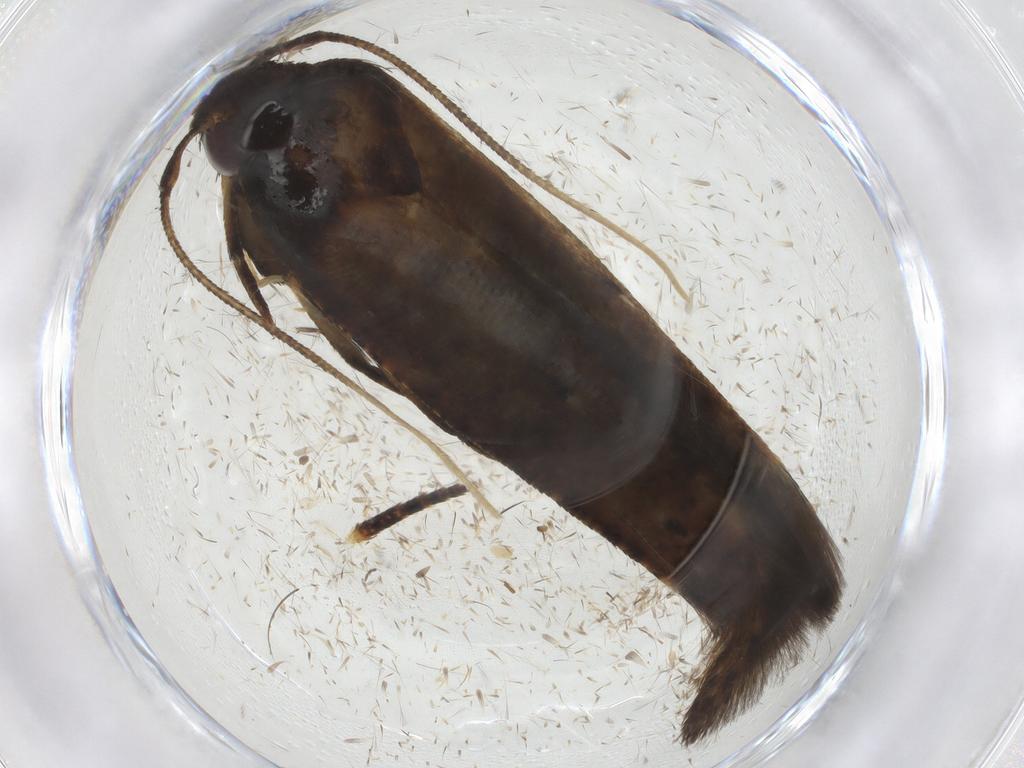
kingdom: Animalia
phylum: Arthropoda
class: Insecta
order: Lepidoptera
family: Cosmopterigidae
